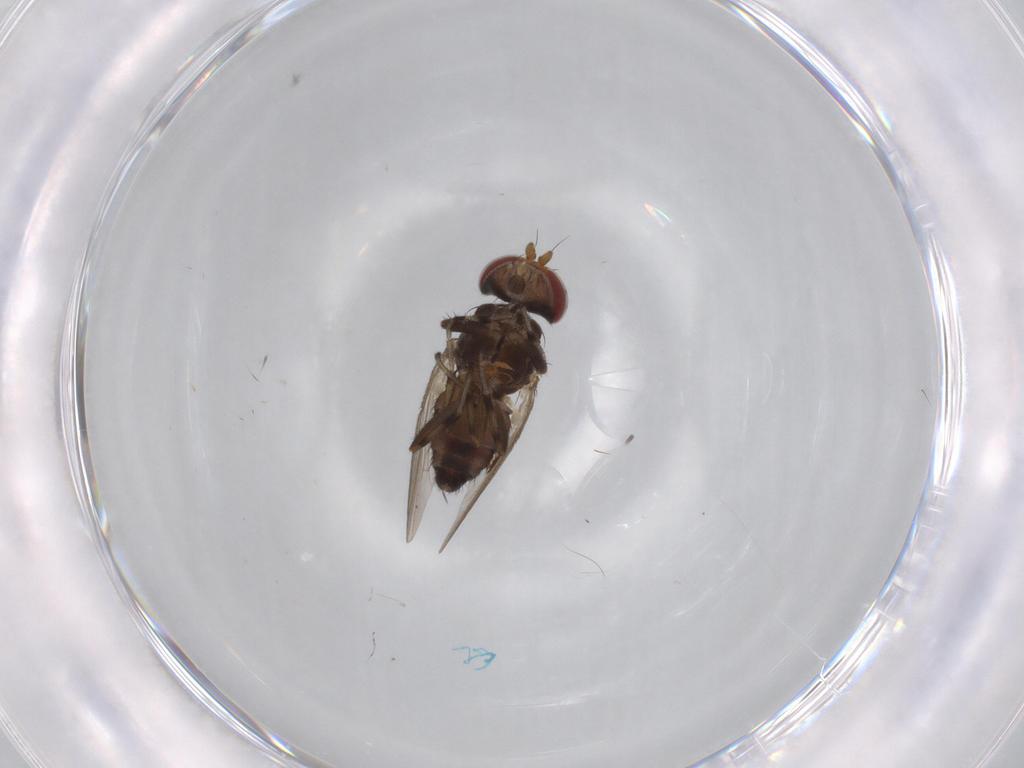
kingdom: Animalia
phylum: Arthropoda
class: Insecta
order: Diptera
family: Heleomyzidae
